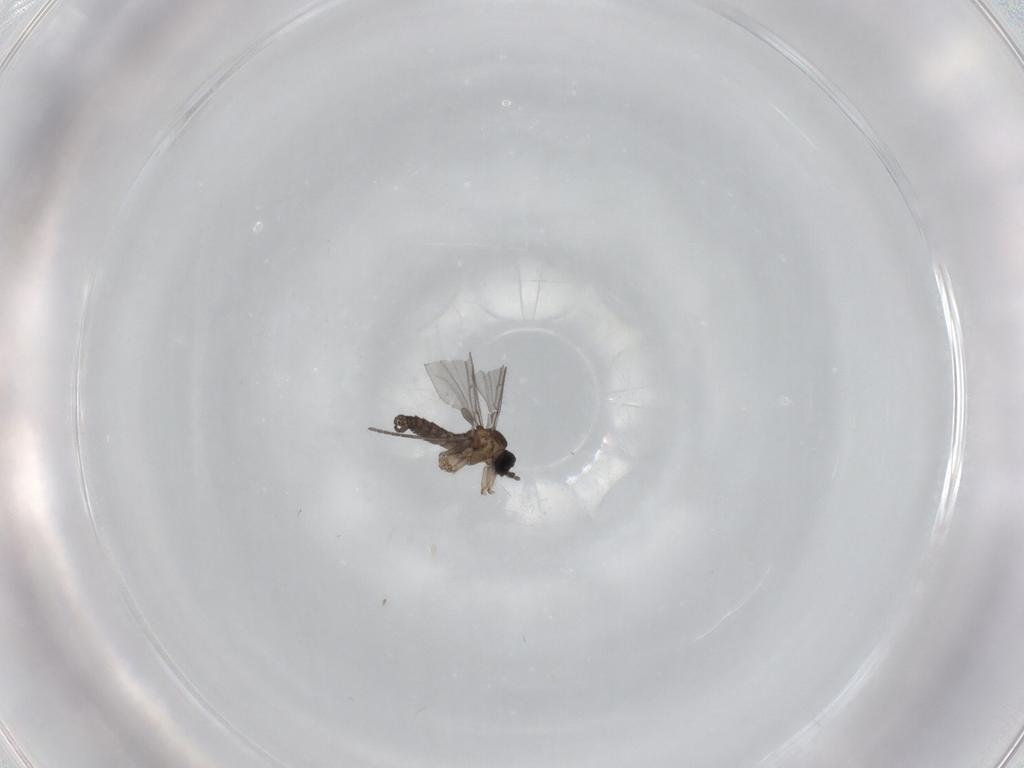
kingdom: Animalia
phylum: Arthropoda
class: Insecta
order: Diptera
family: Sciaridae
